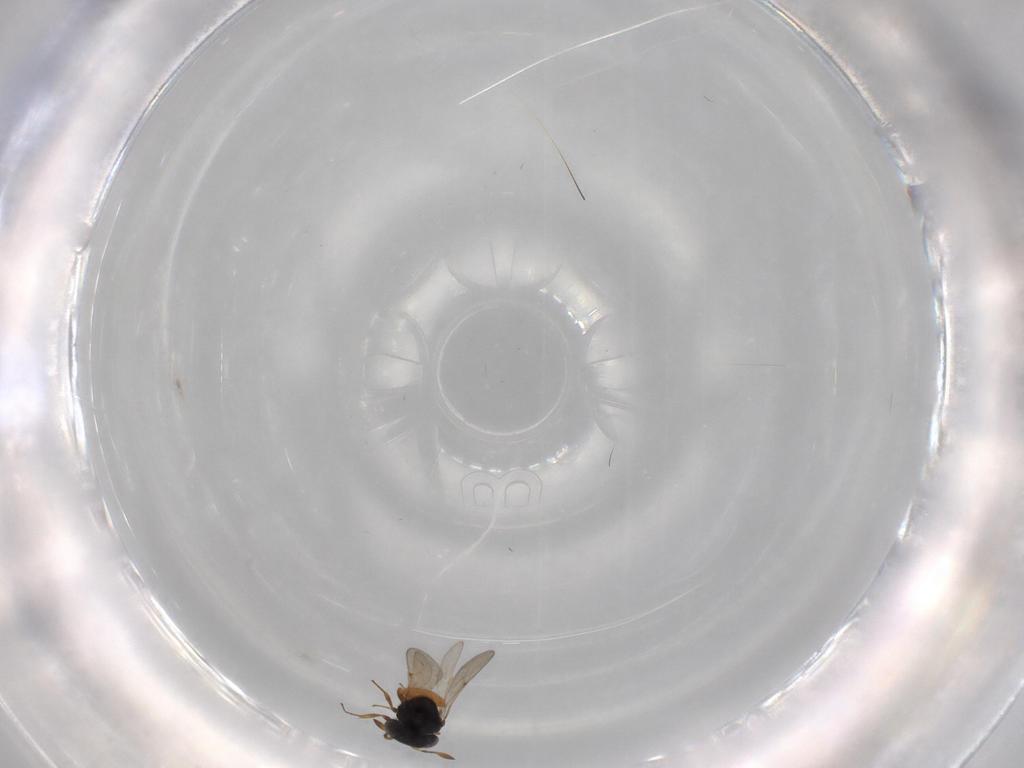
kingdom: Animalia
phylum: Arthropoda
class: Insecta
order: Hymenoptera
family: Scelionidae
